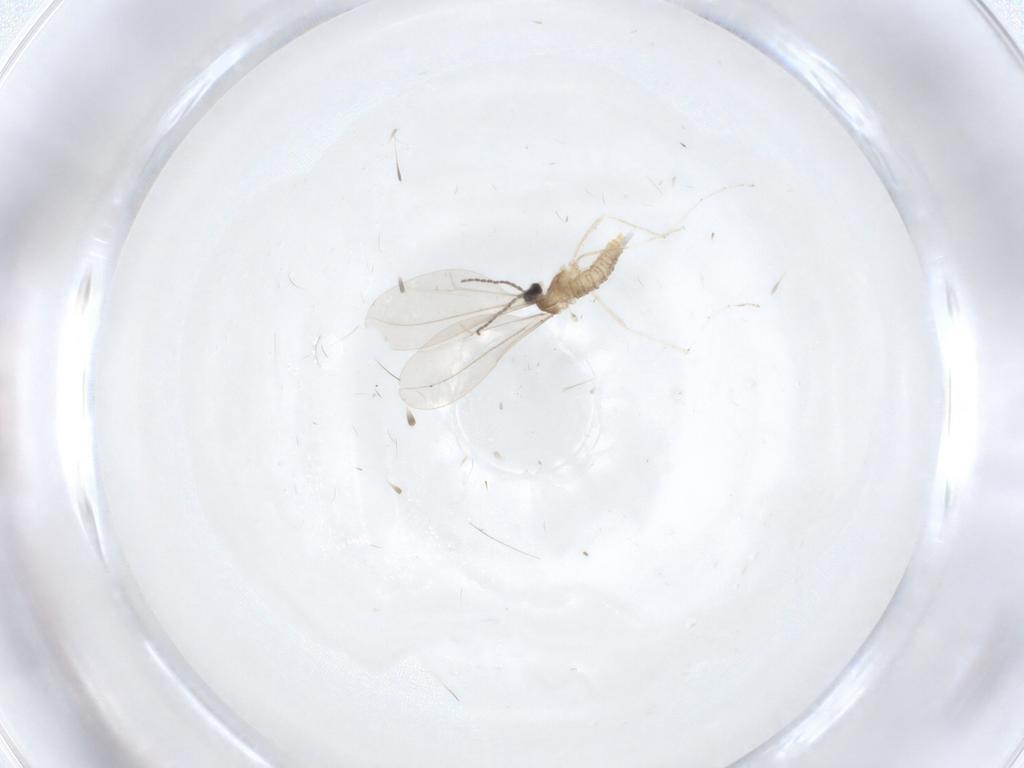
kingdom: Animalia
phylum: Arthropoda
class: Insecta
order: Diptera
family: Cecidomyiidae
